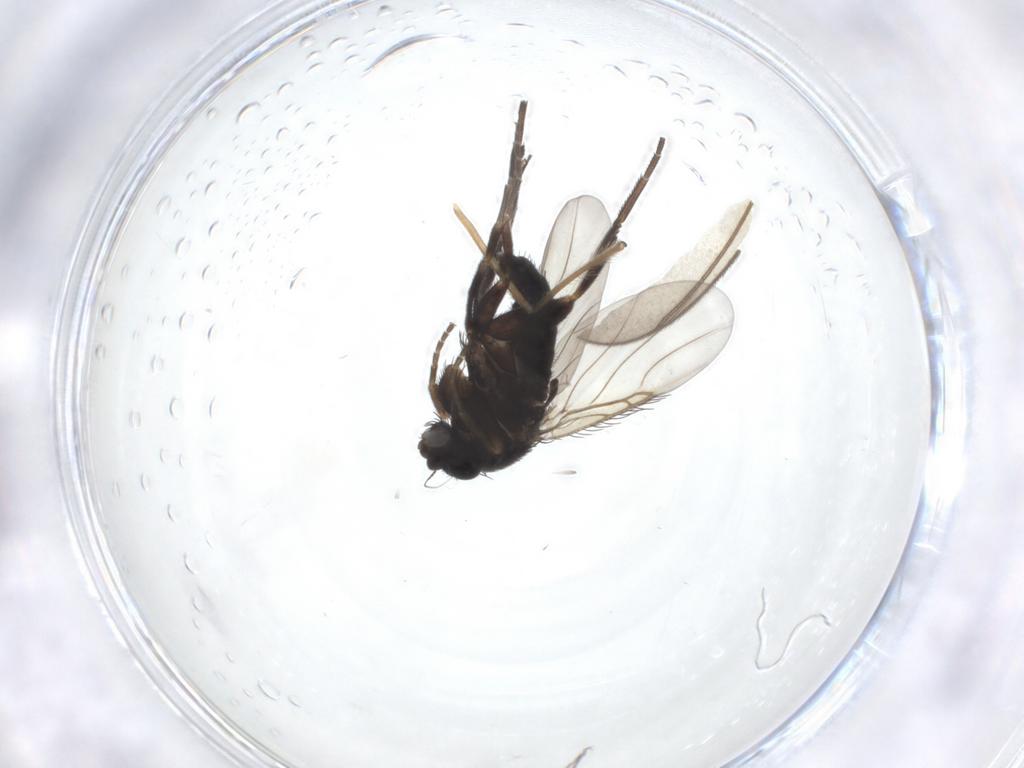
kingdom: Animalia
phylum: Arthropoda
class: Insecta
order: Diptera
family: Phoridae
